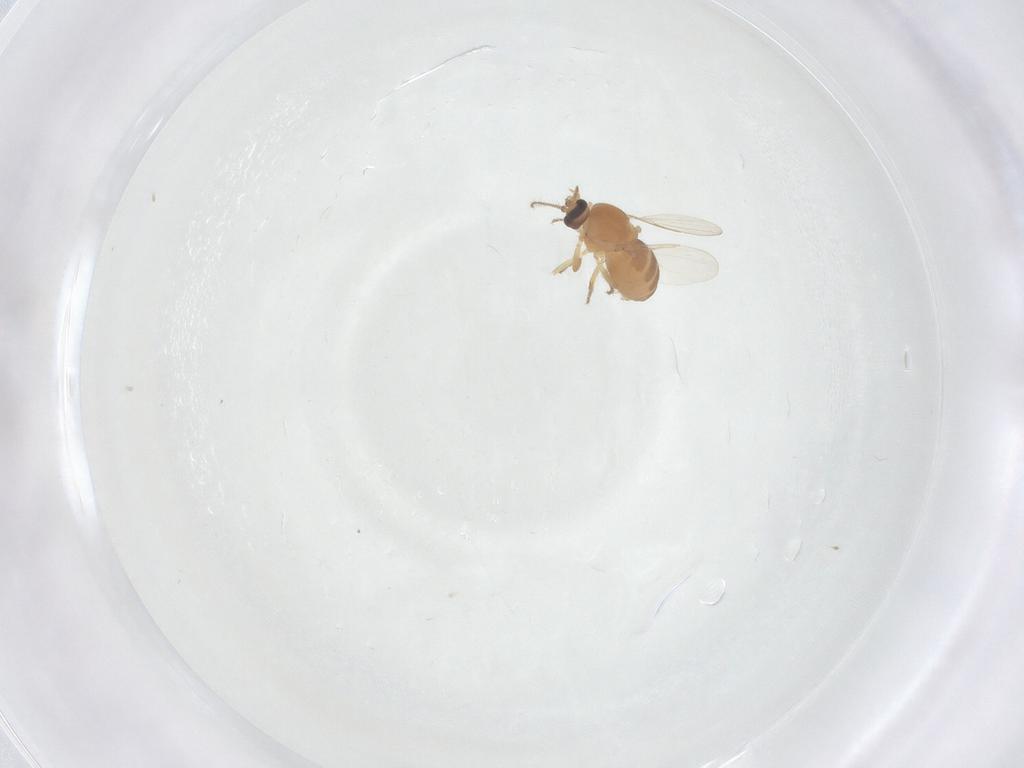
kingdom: Animalia
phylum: Arthropoda
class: Insecta
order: Diptera
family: Ceratopogonidae
